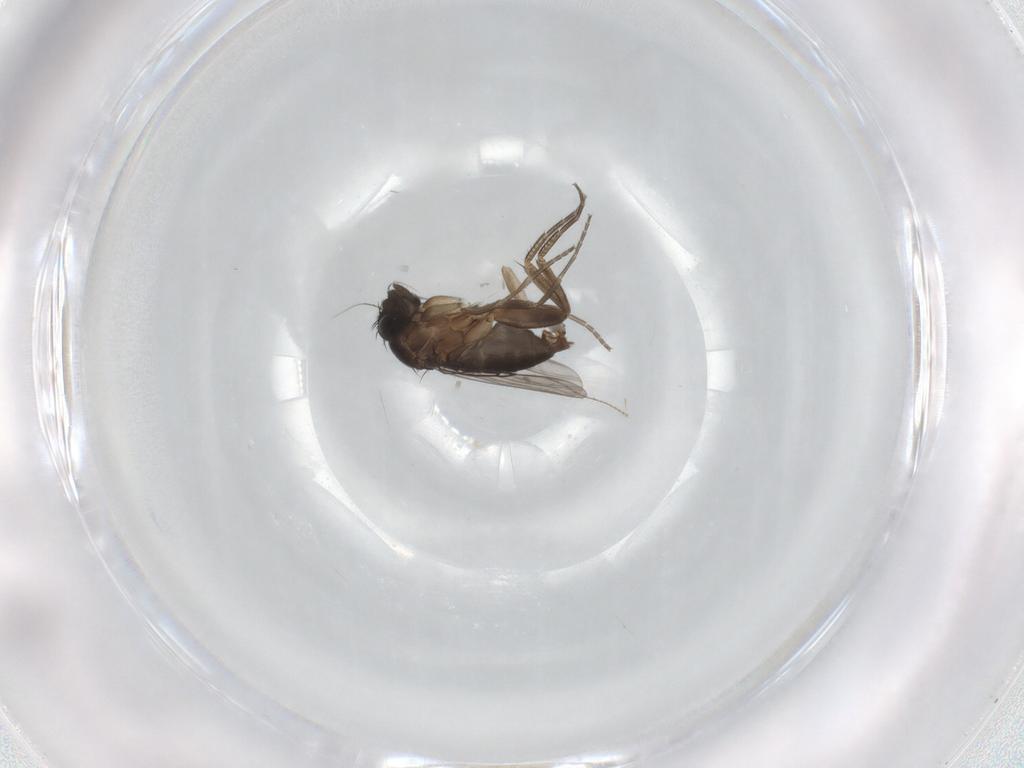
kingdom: Animalia
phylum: Arthropoda
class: Insecta
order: Diptera
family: Phoridae
